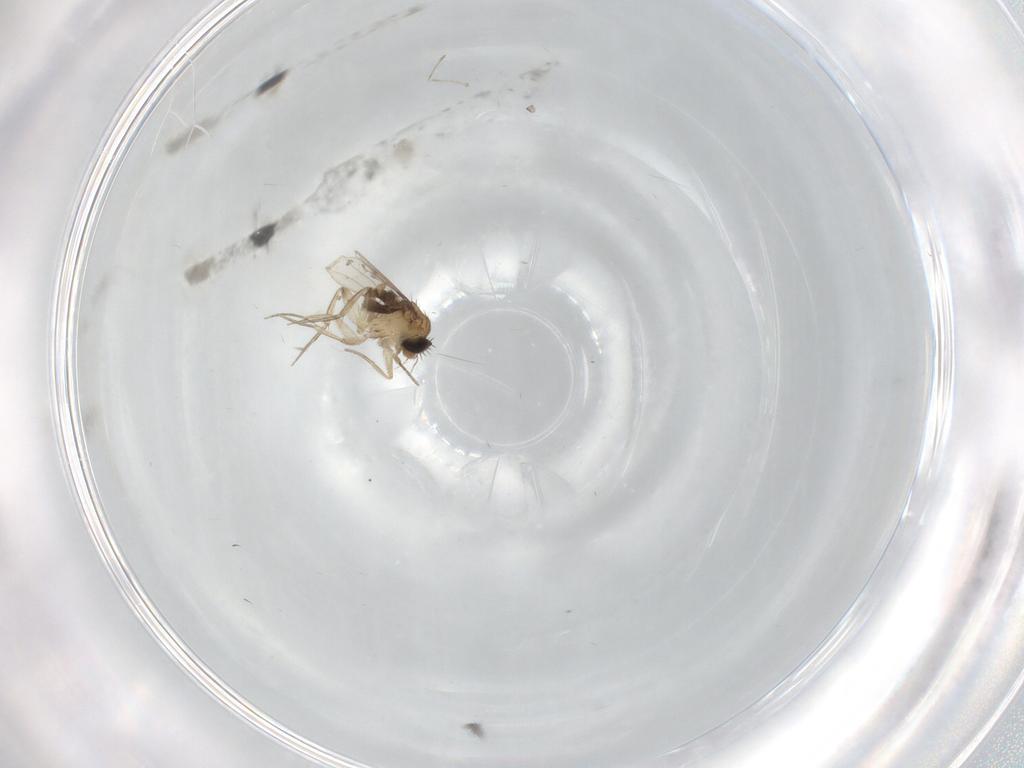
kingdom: Animalia
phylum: Arthropoda
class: Insecta
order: Diptera
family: Phoridae
